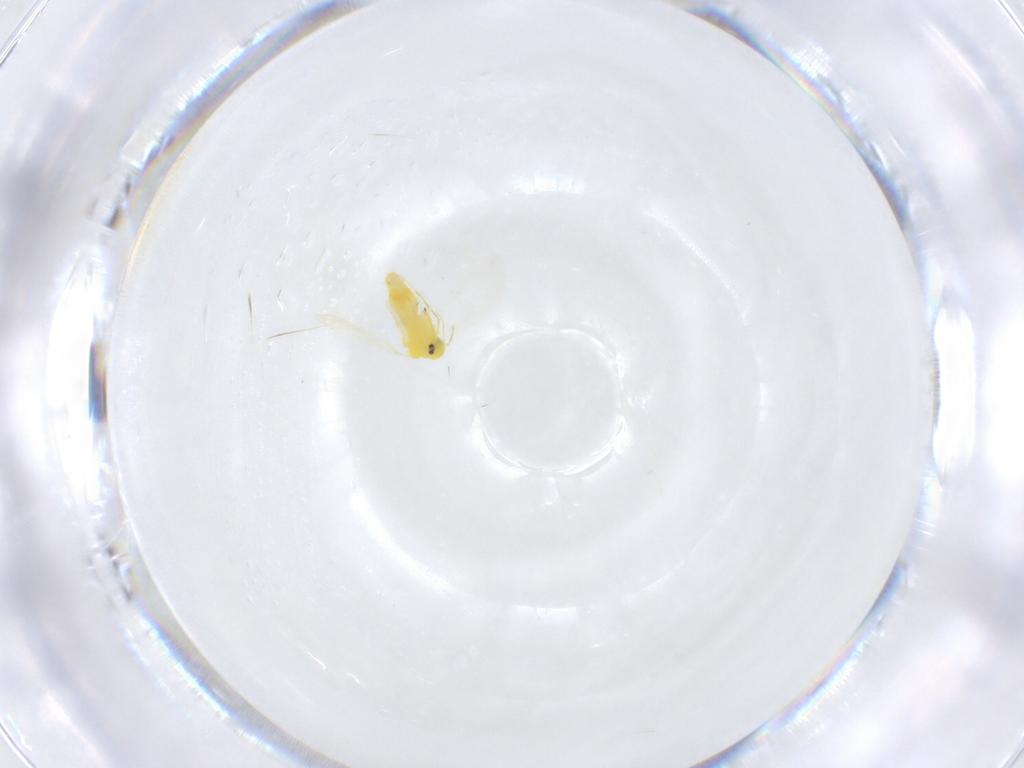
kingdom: Animalia
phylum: Arthropoda
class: Insecta
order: Hemiptera
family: Aleyrodidae
